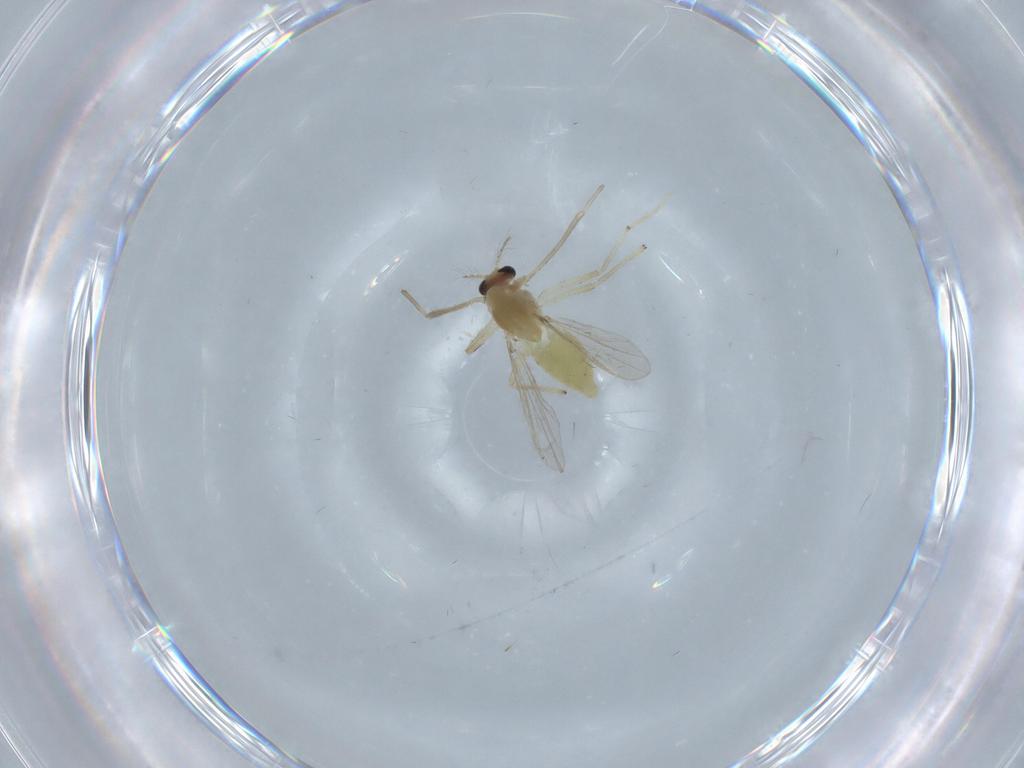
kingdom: Animalia
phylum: Arthropoda
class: Insecta
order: Diptera
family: Chironomidae
